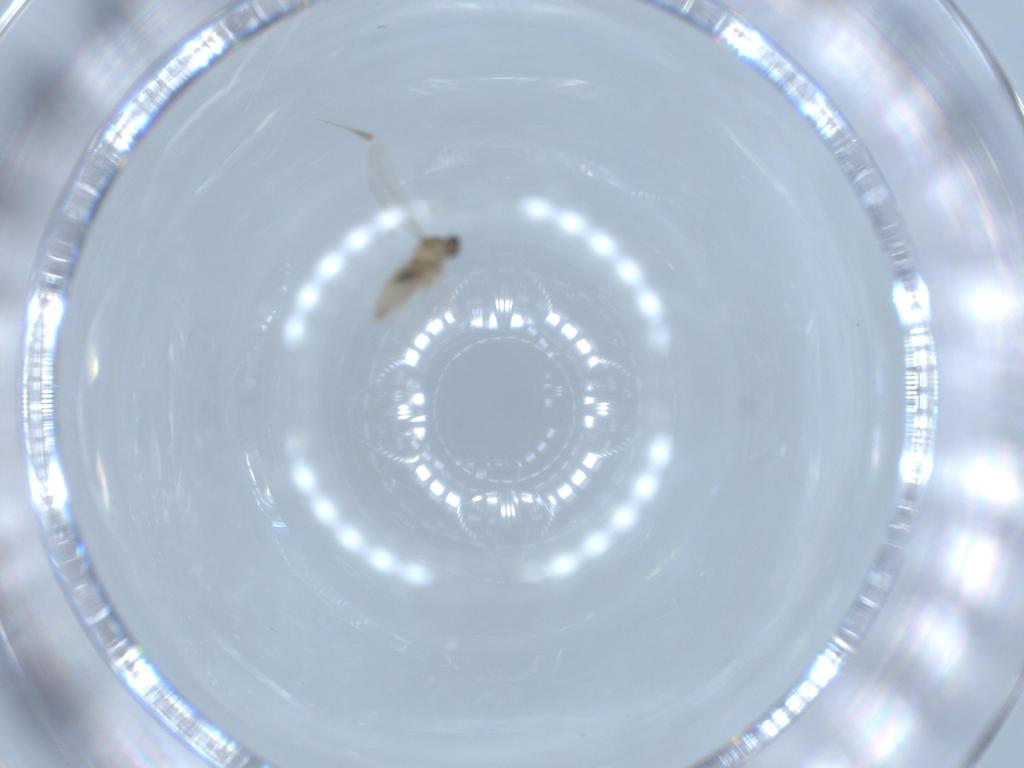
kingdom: Animalia
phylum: Arthropoda
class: Insecta
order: Diptera
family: Cecidomyiidae
